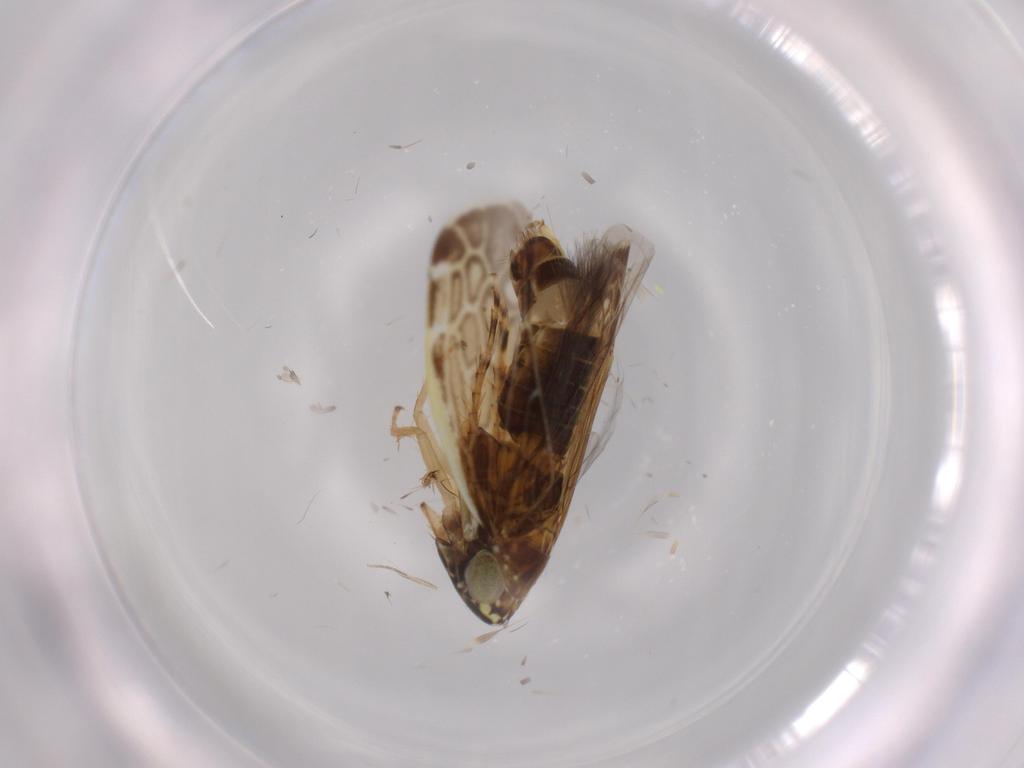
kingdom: Animalia
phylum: Arthropoda
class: Insecta
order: Hemiptera
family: Cicadellidae
